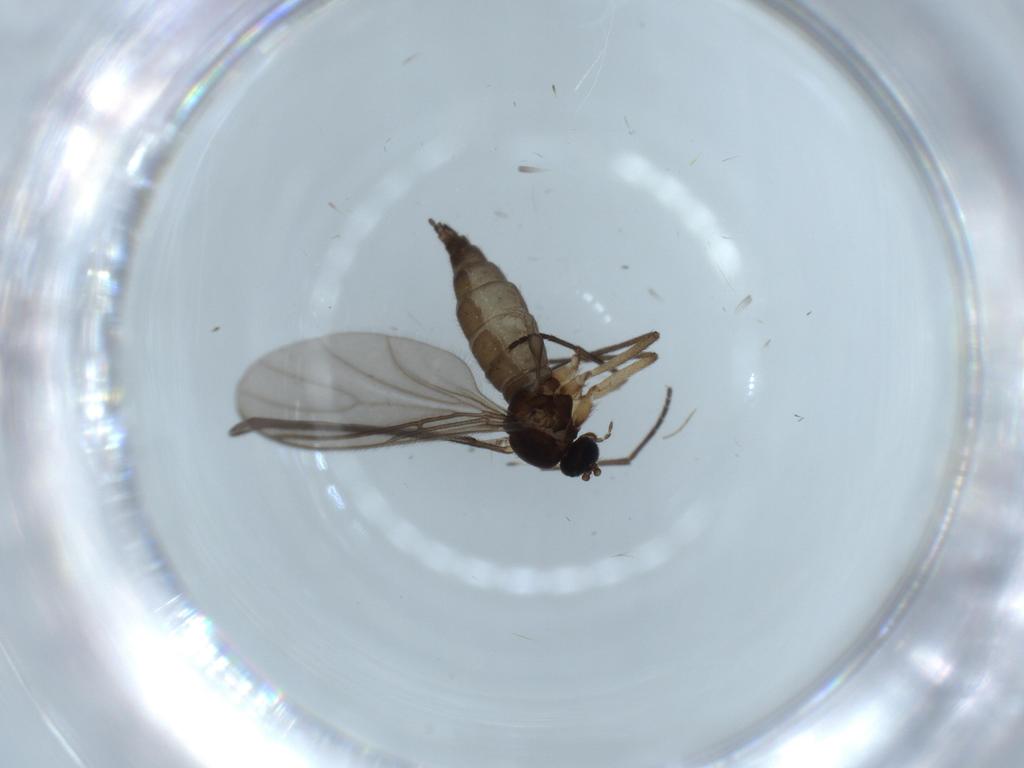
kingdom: Animalia
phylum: Arthropoda
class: Insecta
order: Diptera
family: Sciaridae
